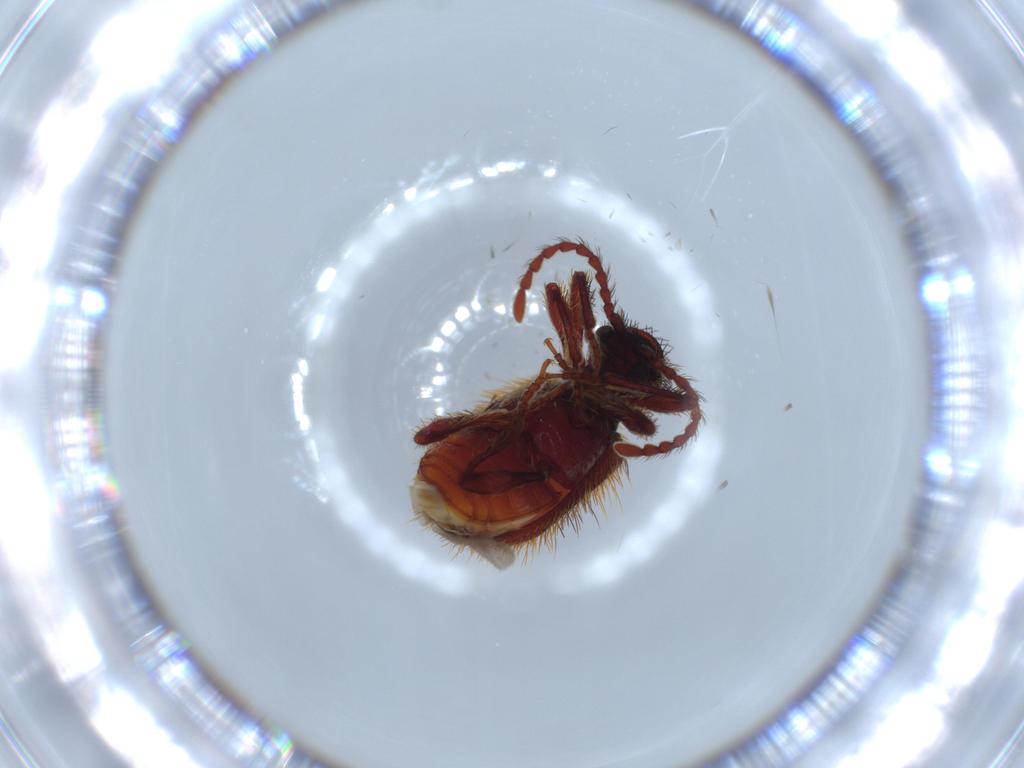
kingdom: Animalia
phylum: Arthropoda
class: Insecta
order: Coleoptera
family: Ptinidae
